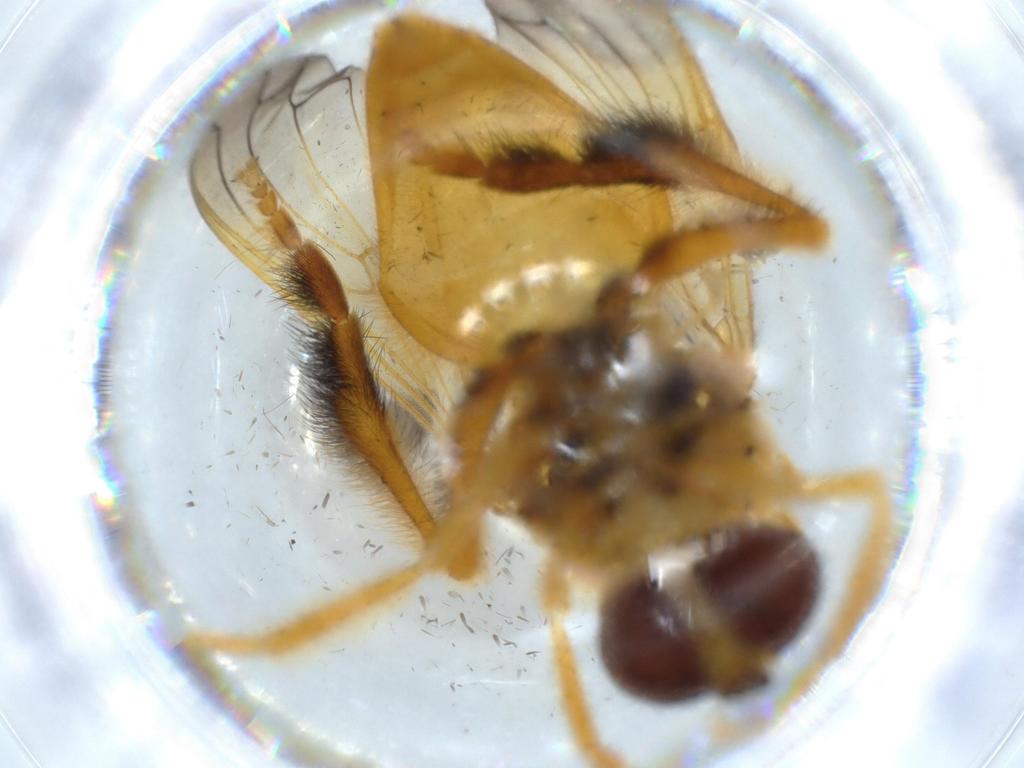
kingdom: Animalia
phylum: Arthropoda
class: Insecta
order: Diptera
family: Syrphidae
